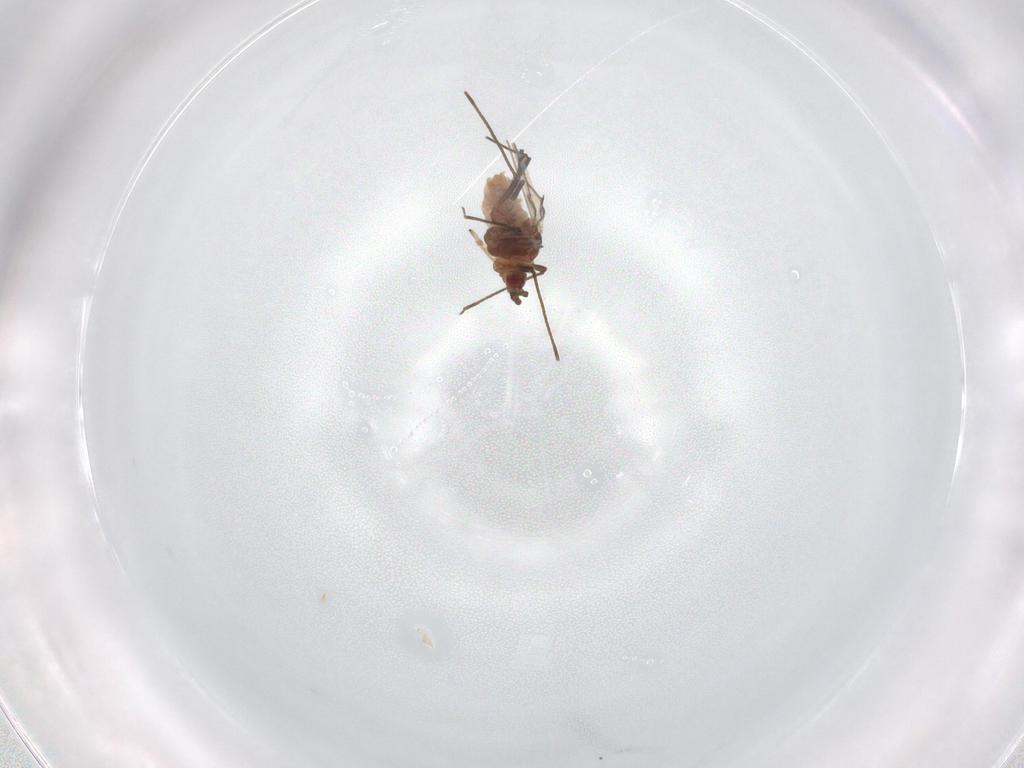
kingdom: Animalia
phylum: Arthropoda
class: Insecta
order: Hemiptera
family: Aphididae
